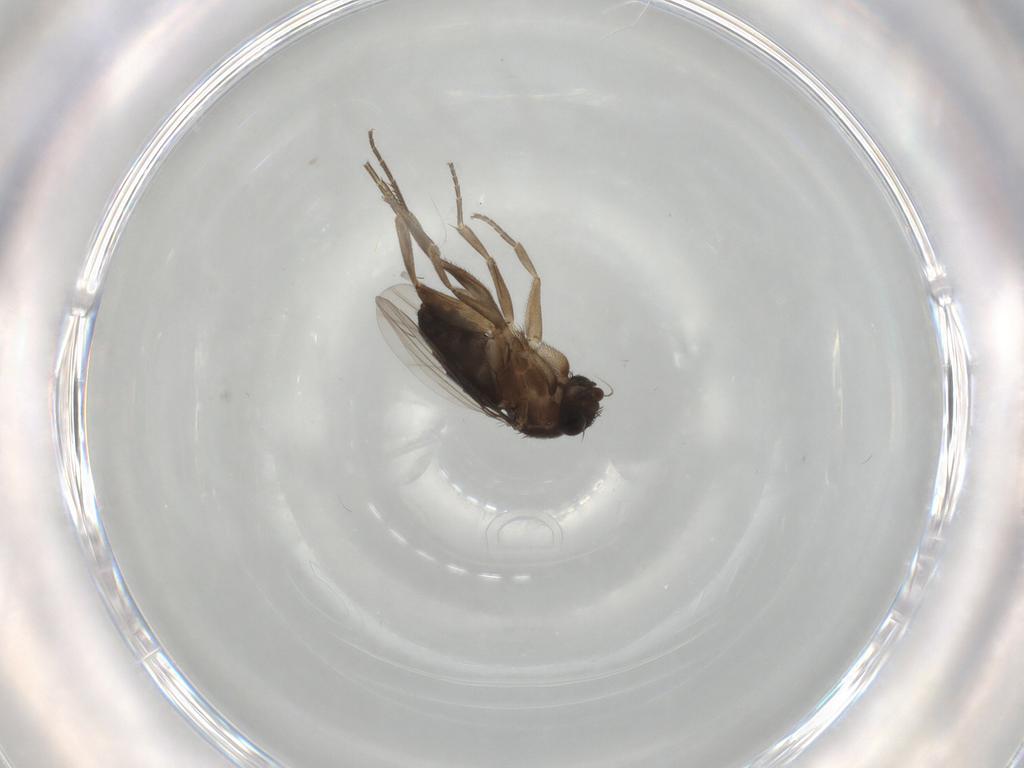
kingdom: Animalia
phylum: Arthropoda
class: Insecta
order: Diptera
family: Phoridae
